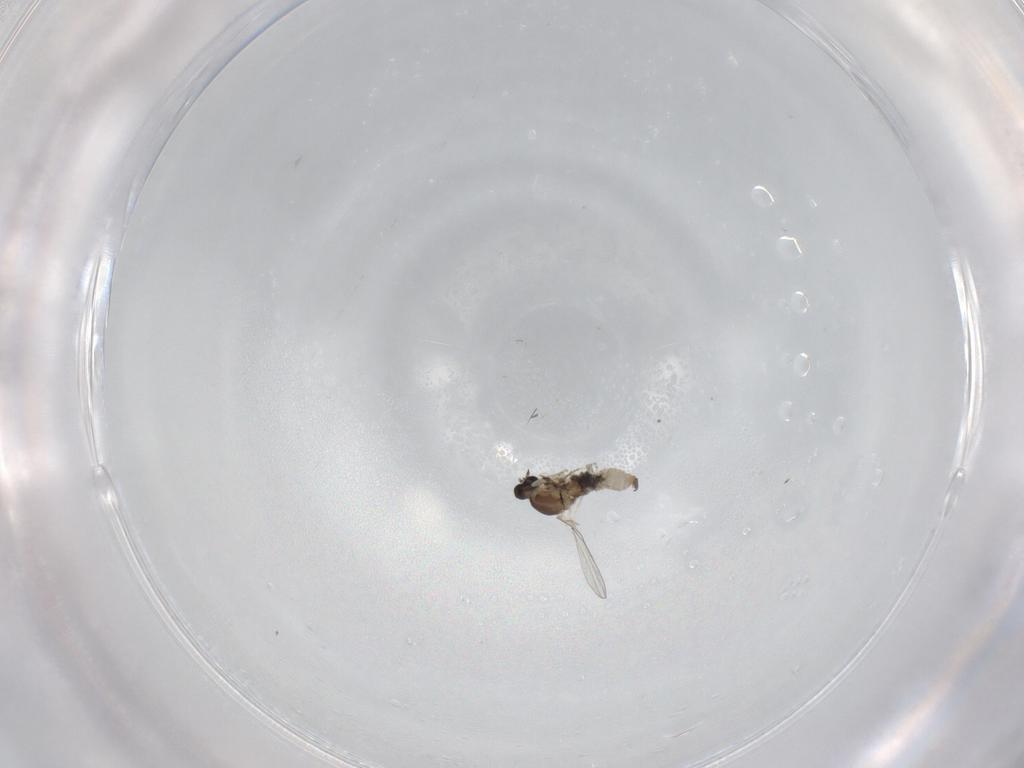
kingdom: Animalia
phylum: Arthropoda
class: Insecta
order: Diptera
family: Cecidomyiidae
